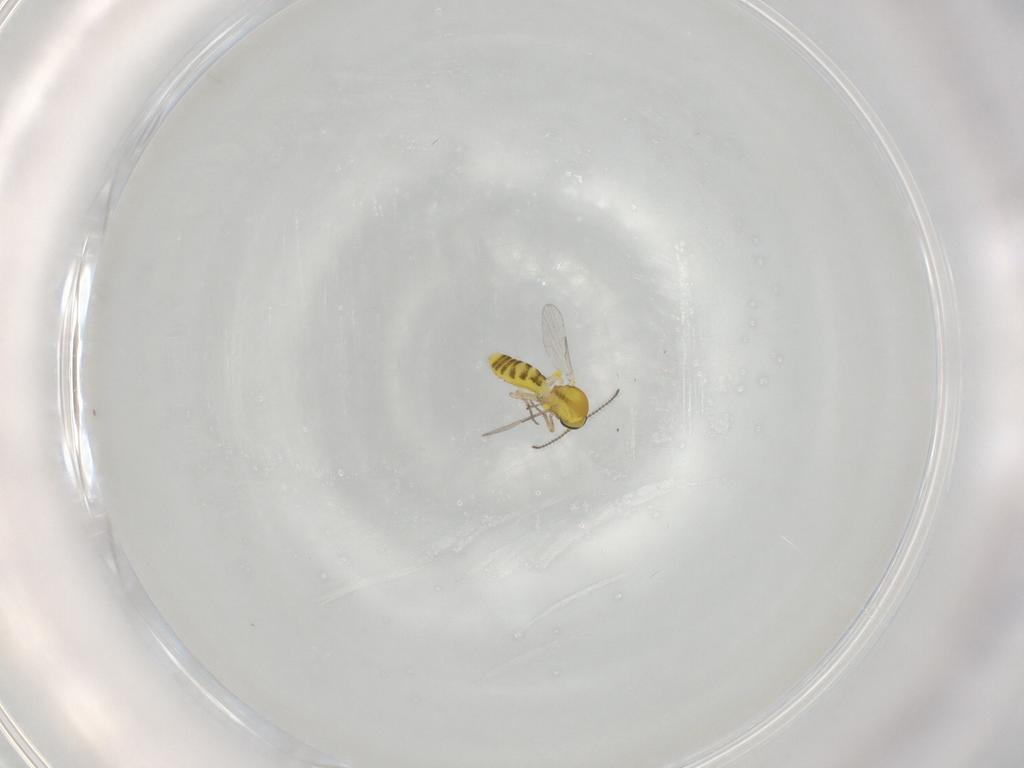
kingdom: Animalia
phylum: Arthropoda
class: Insecta
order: Diptera
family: Ceratopogonidae
